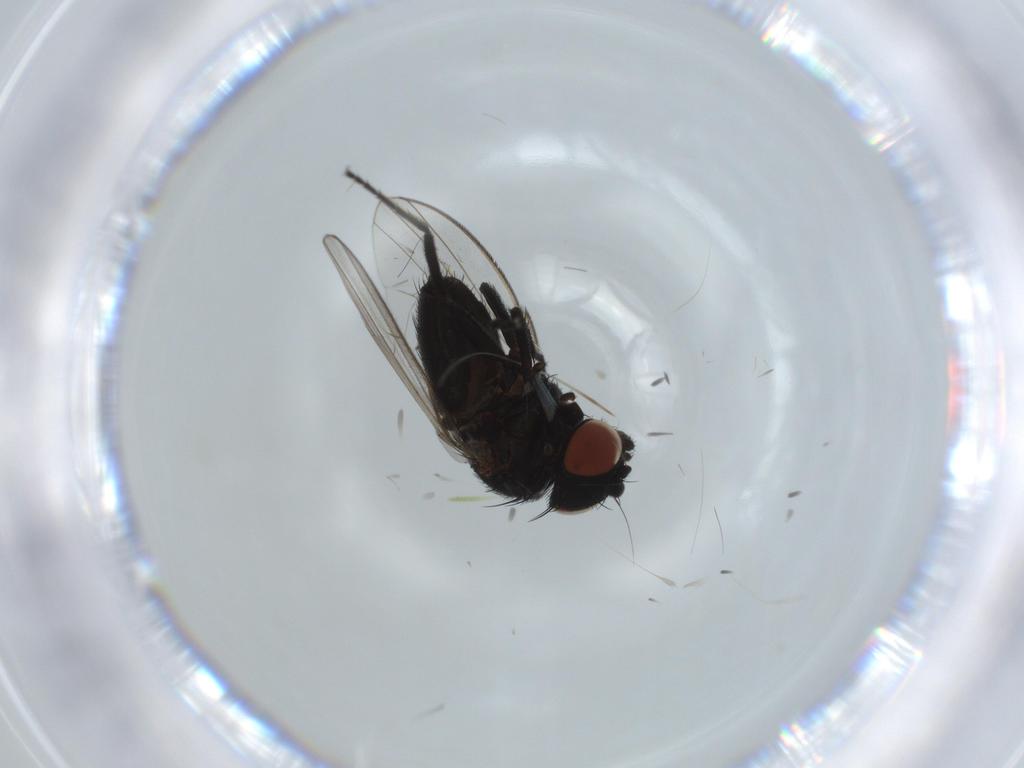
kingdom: Animalia
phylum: Arthropoda
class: Insecta
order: Diptera
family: Milichiidae
